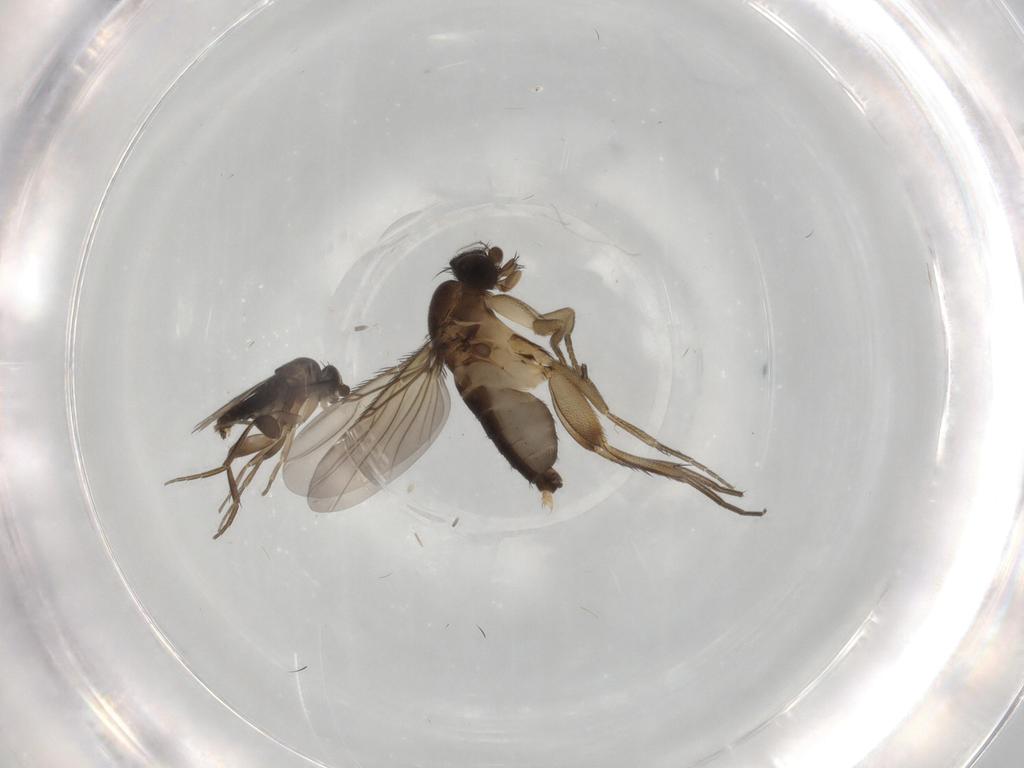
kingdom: Animalia
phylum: Arthropoda
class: Insecta
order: Diptera
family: Phoridae
